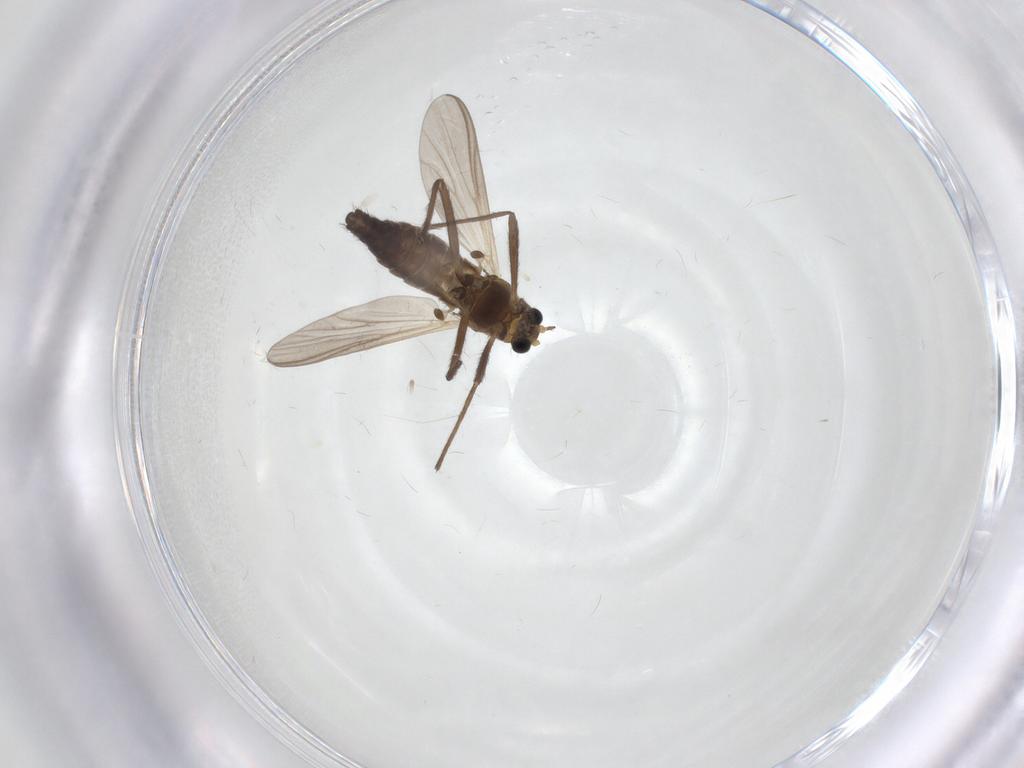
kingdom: Animalia
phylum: Arthropoda
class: Insecta
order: Diptera
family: Chironomidae
